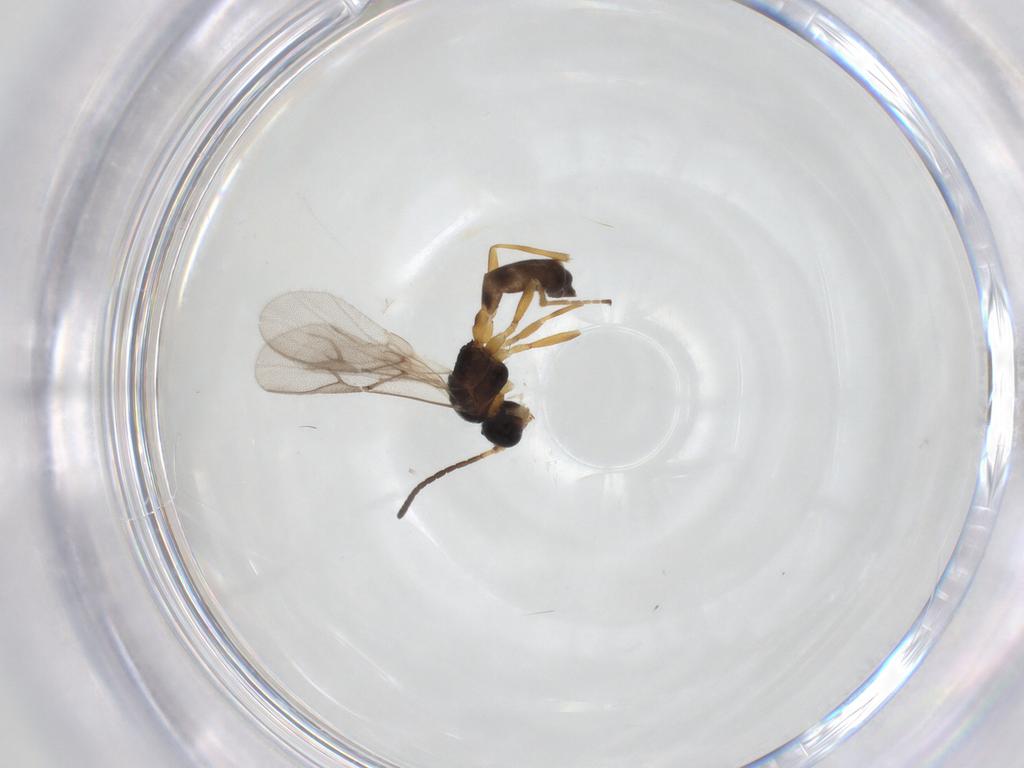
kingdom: Animalia
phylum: Arthropoda
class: Insecta
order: Hymenoptera
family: Braconidae
